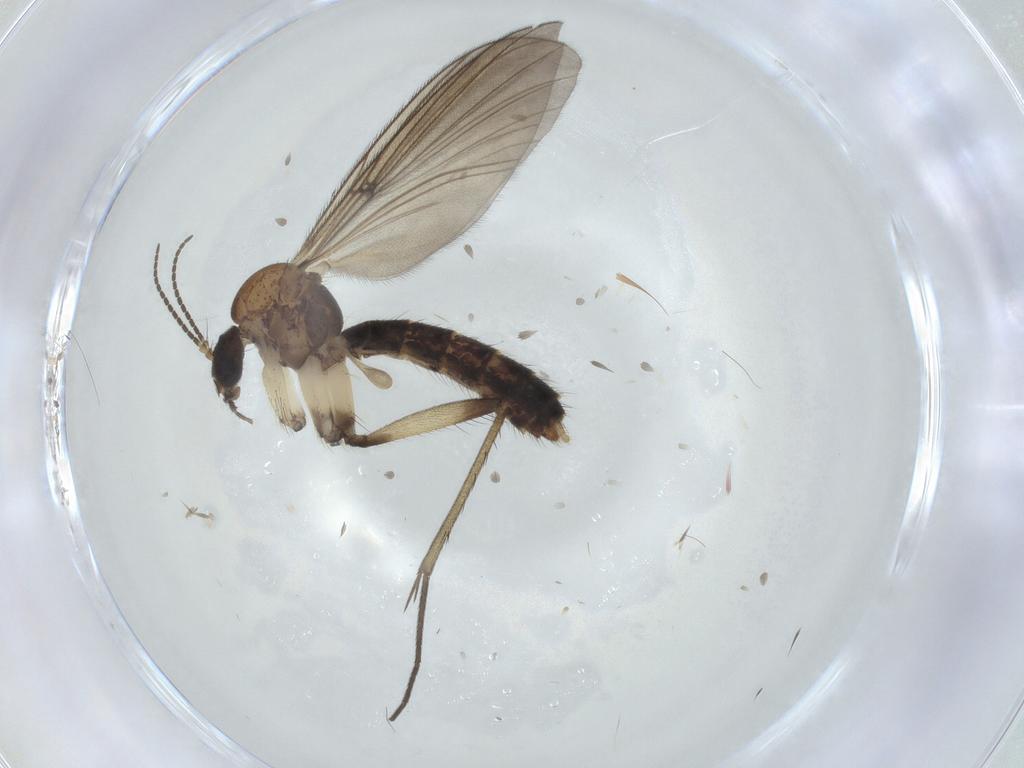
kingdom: Animalia
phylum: Arthropoda
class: Insecta
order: Diptera
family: Mycetophilidae
